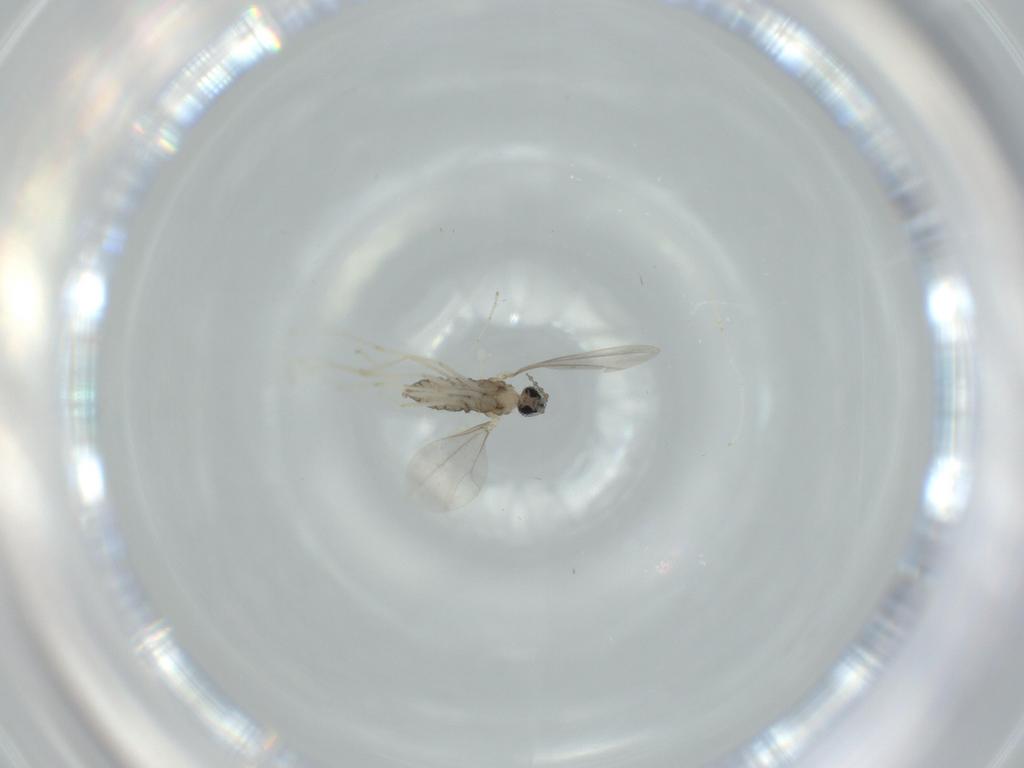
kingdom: Animalia
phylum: Arthropoda
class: Insecta
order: Diptera
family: Cecidomyiidae
